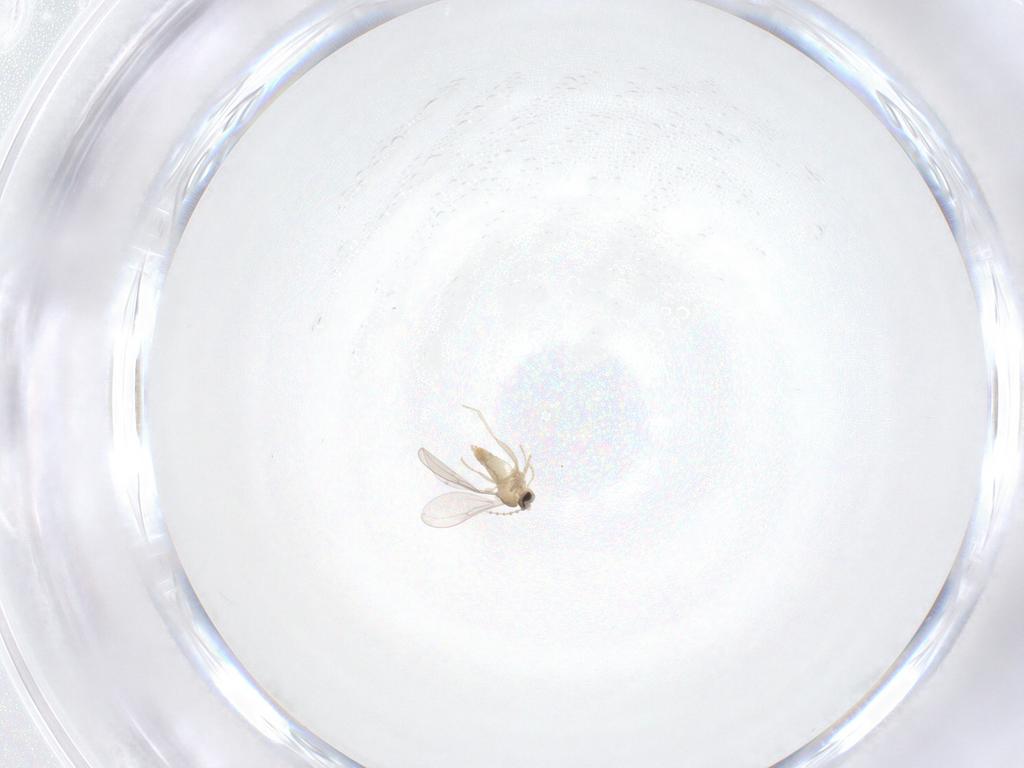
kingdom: Animalia
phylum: Arthropoda
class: Insecta
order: Diptera
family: Cecidomyiidae
